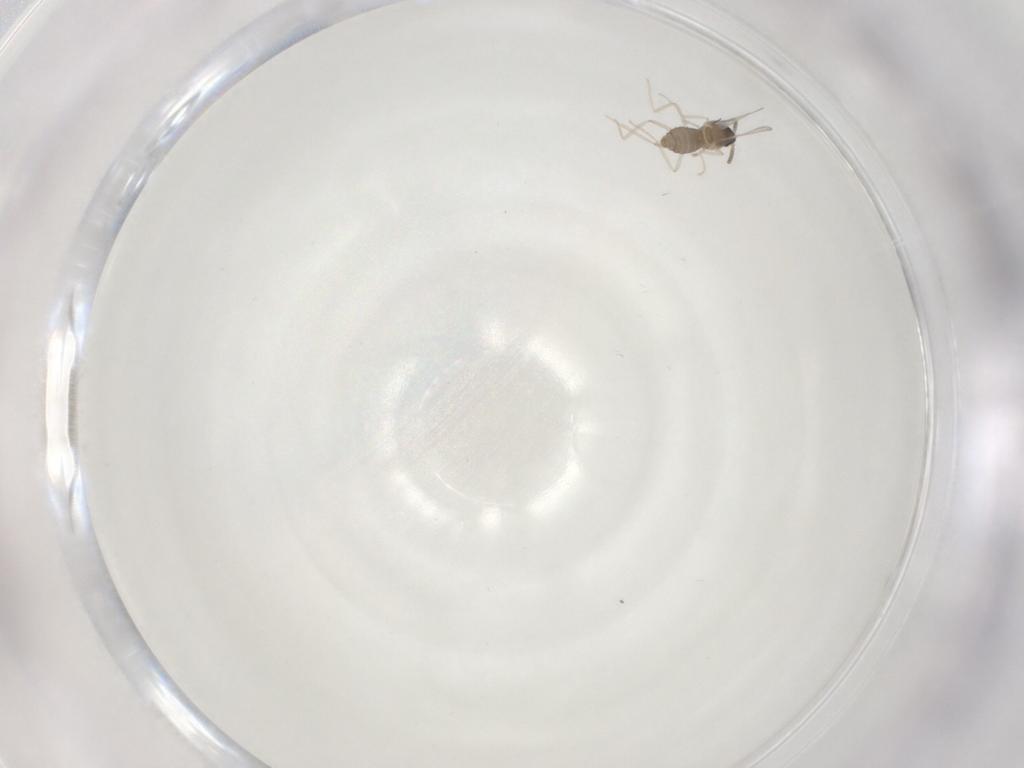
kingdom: Animalia
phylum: Arthropoda
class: Insecta
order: Diptera
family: Cecidomyiidae
